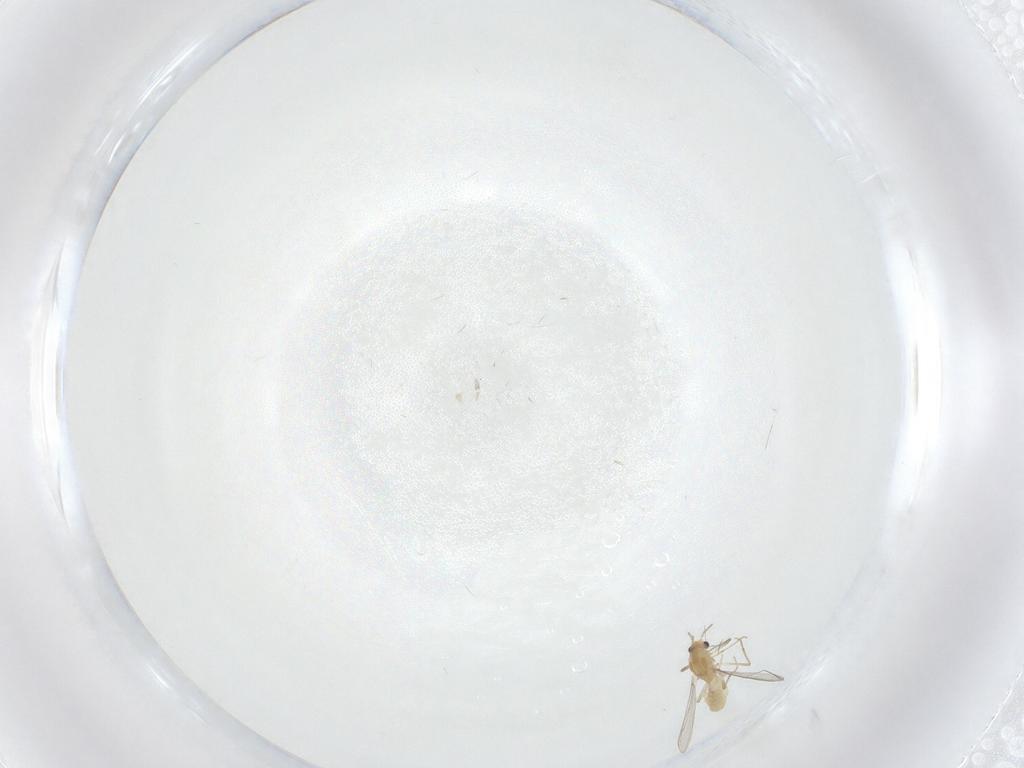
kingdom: Animalia
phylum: Arthropoda
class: Insecta
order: Diptera
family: Chironomidae
